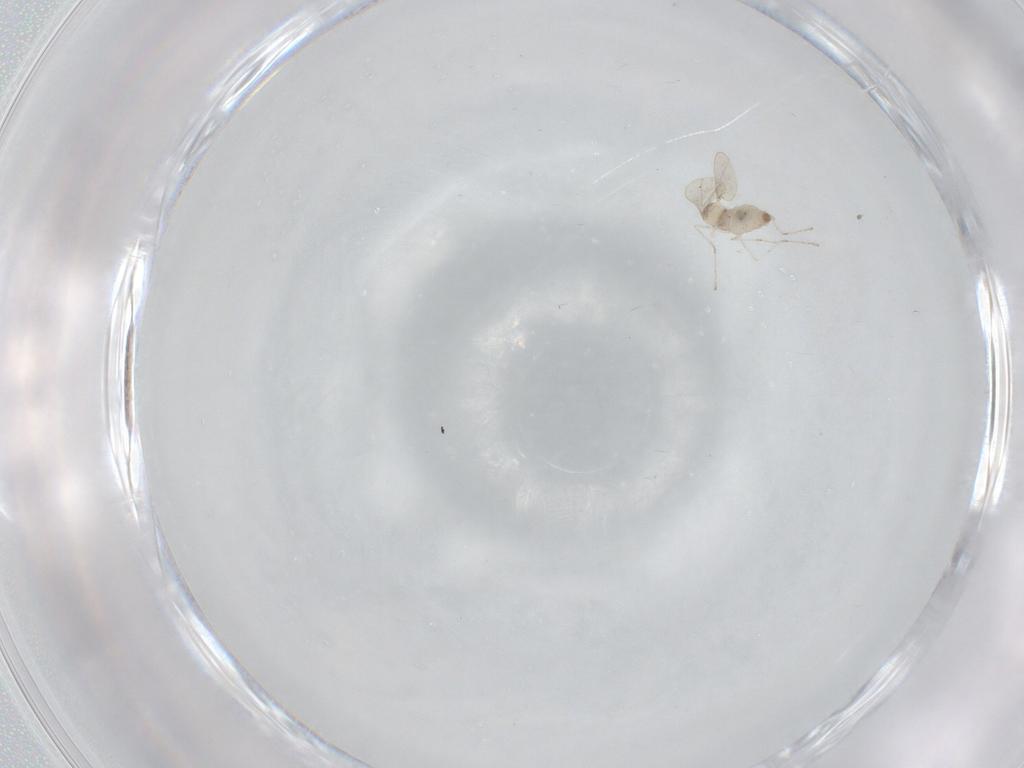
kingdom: Animalia
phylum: Arthropoda
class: Insecta
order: Diptera
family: Cecidomyiidae
